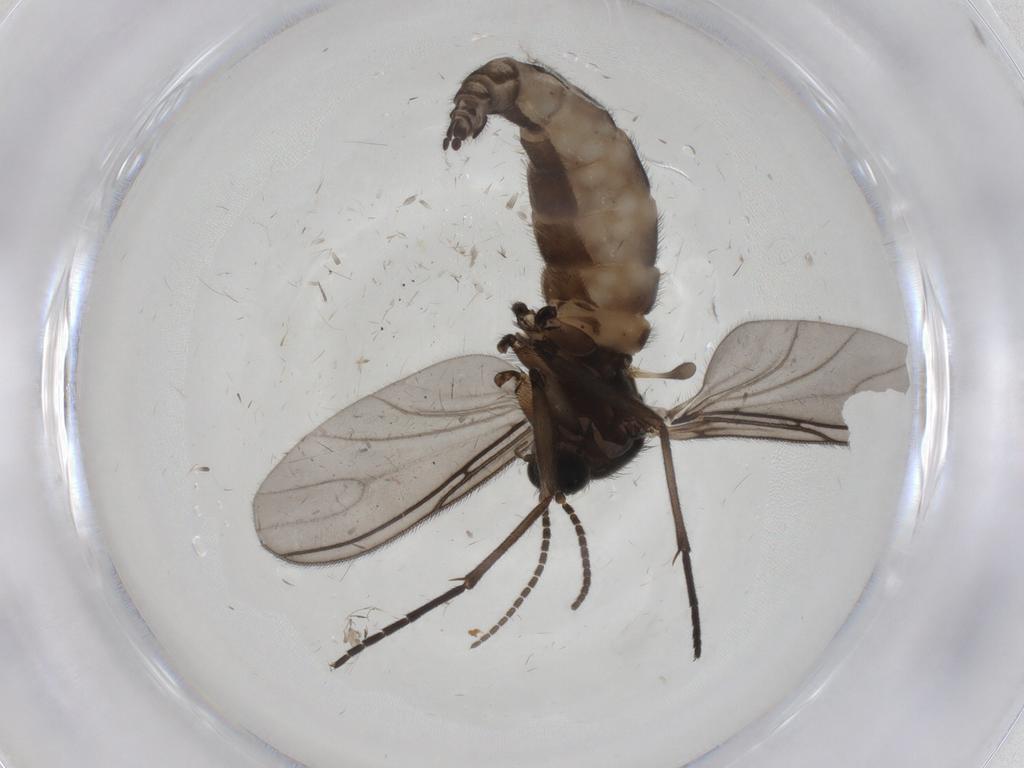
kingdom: Animalia
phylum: Arthropoda
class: Insecta
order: Diptera
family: Sciaridae
